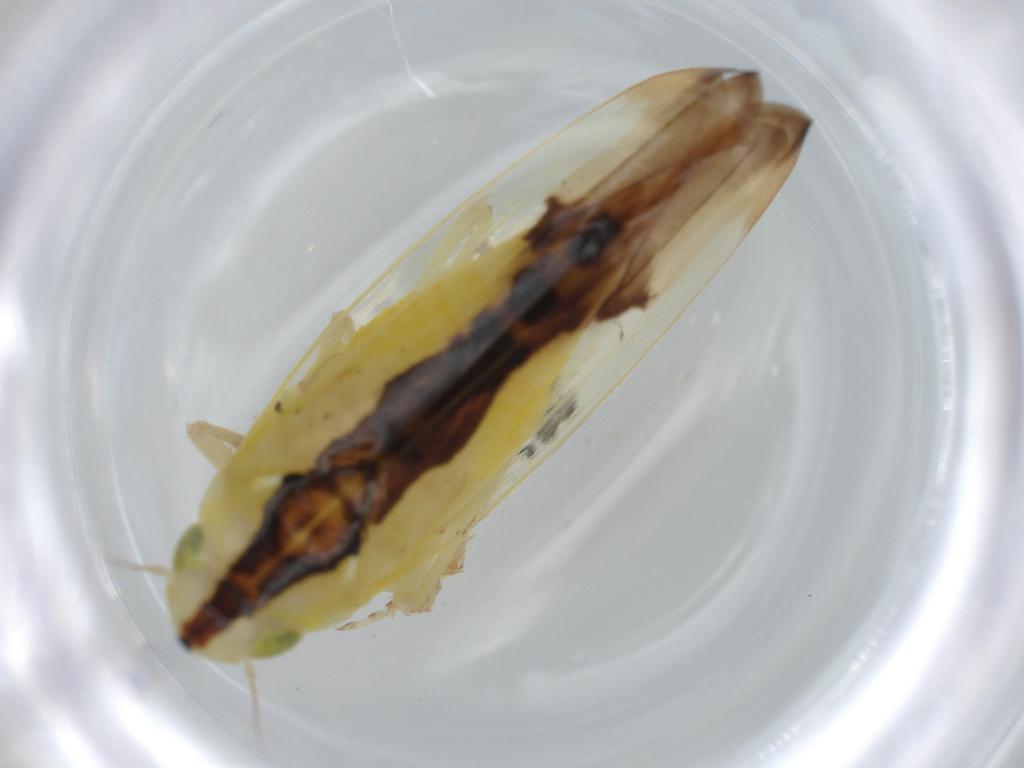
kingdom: Animalia
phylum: Arthropoda
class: Insecta
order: Hemiptera
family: Cicadellidae
